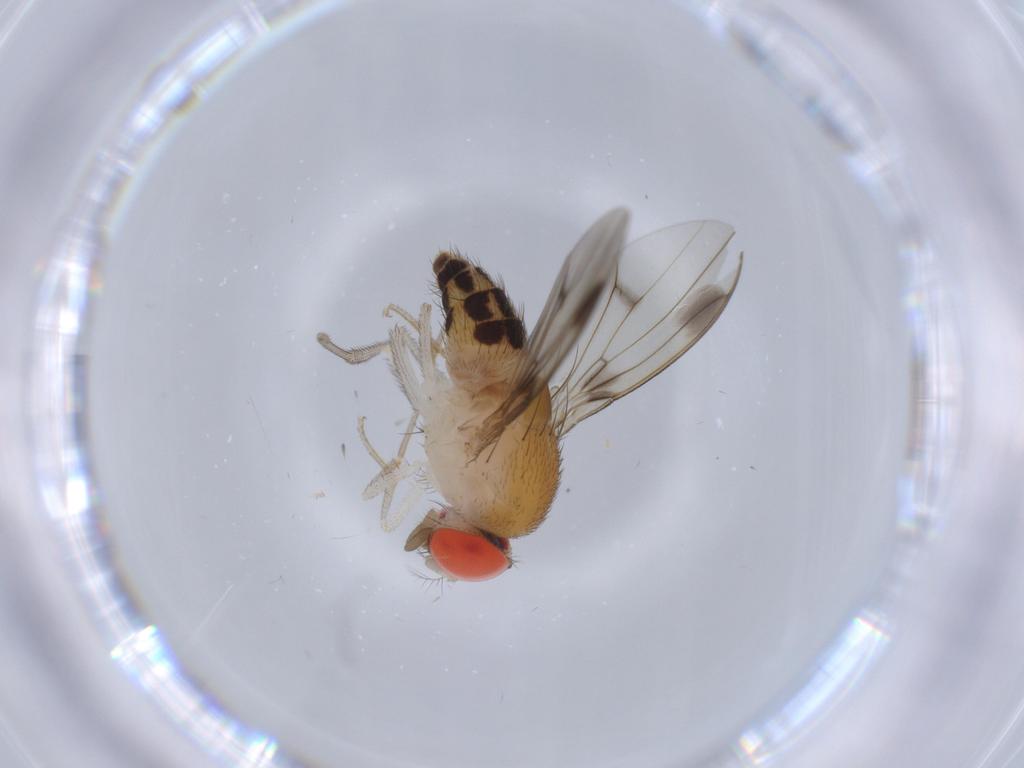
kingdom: Animalia
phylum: Arthropoda
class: Insecta
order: Diptera
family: Drosophilidae
